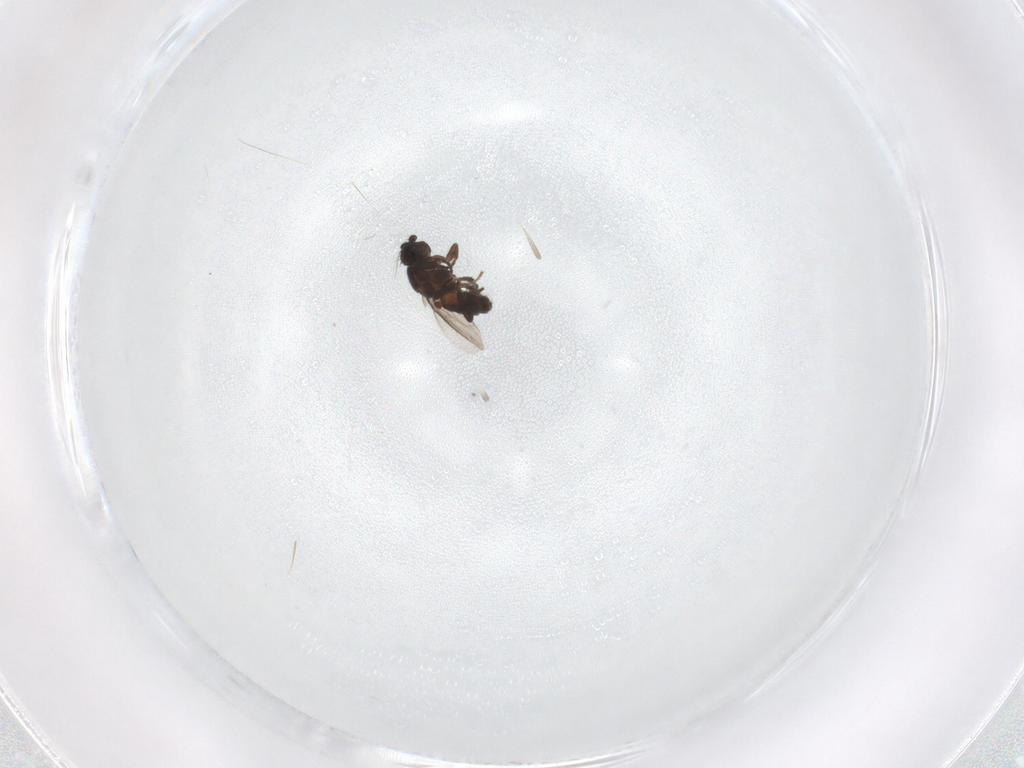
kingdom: Animalia
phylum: Arthropoda
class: Insecta
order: Diptera
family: Sphaeroceridae
